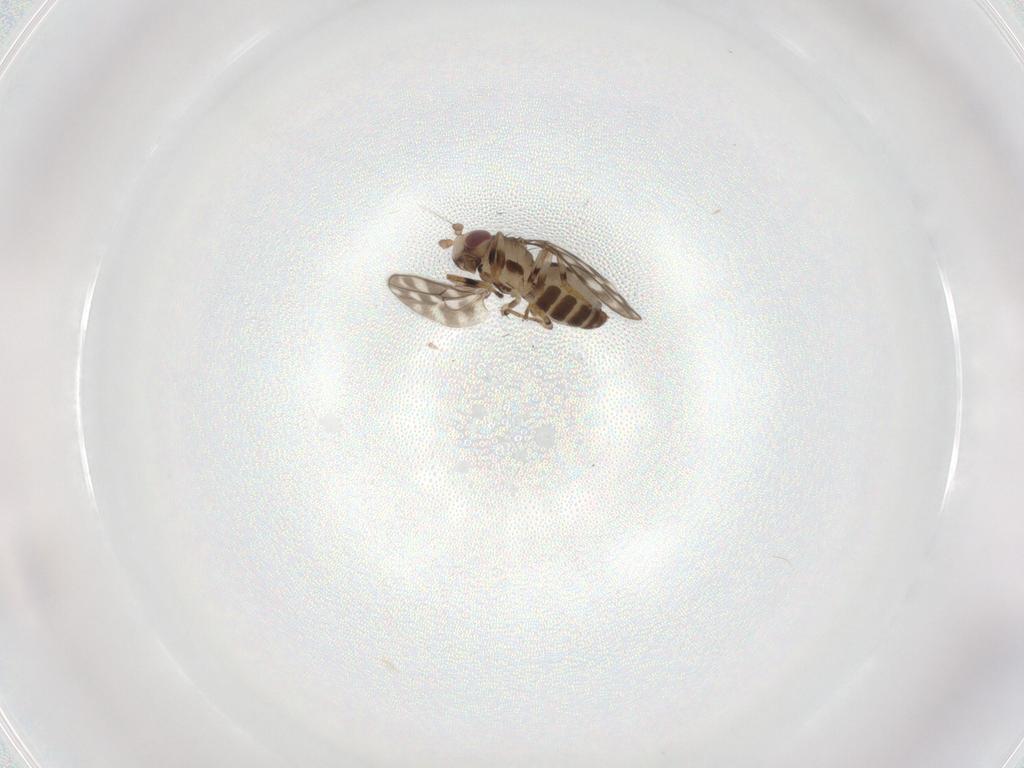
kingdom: Animalia
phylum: Arthropoda
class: Insecta
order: Diptera
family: Sphaeroceridae
